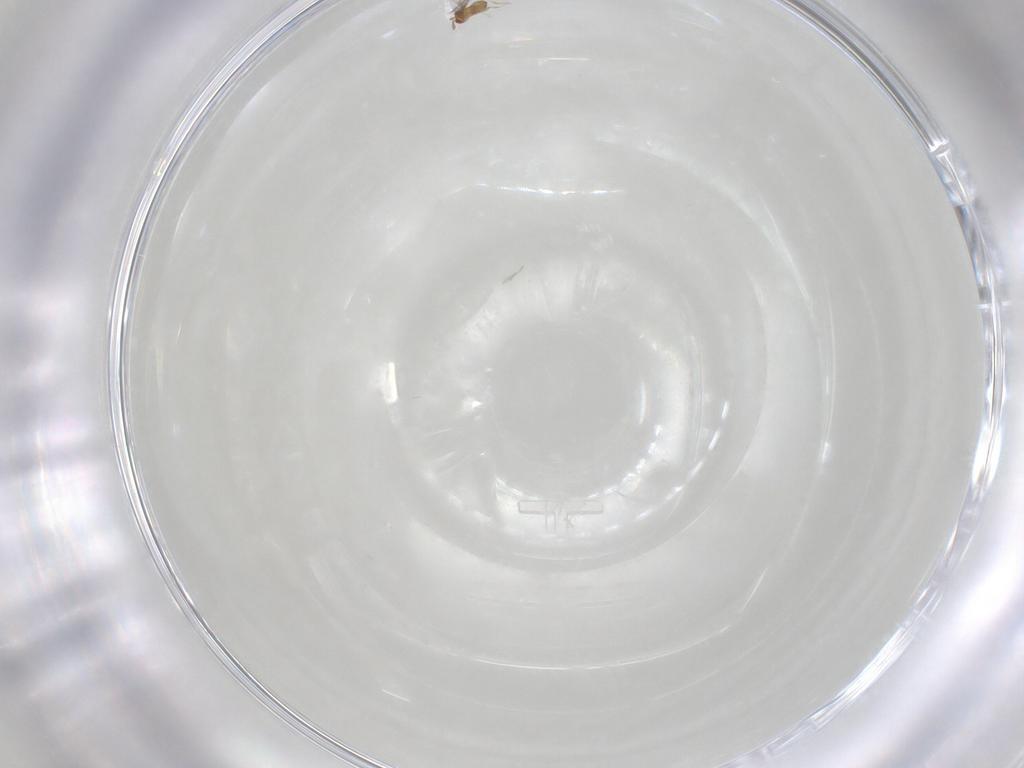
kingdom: Animalia
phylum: Arthropoda
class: Insecta
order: Hymenoptera
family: Trichogrammatidae
